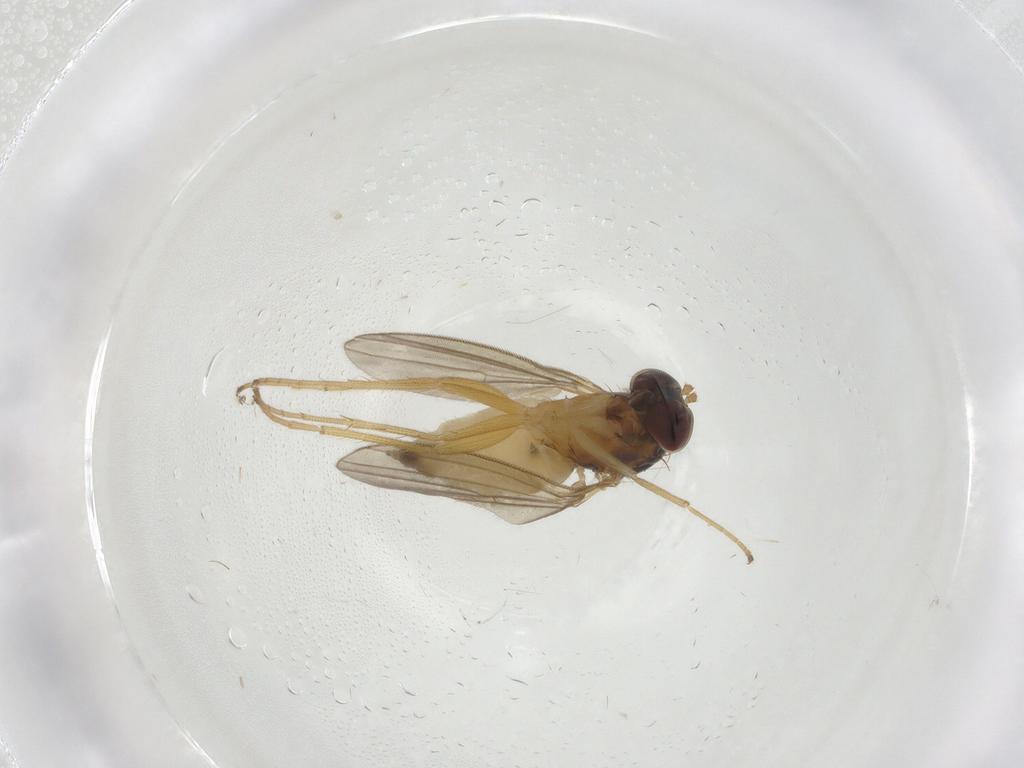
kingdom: Animalia
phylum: Arthropoda
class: Insecta
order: Diptera
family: Dolichopodidae
